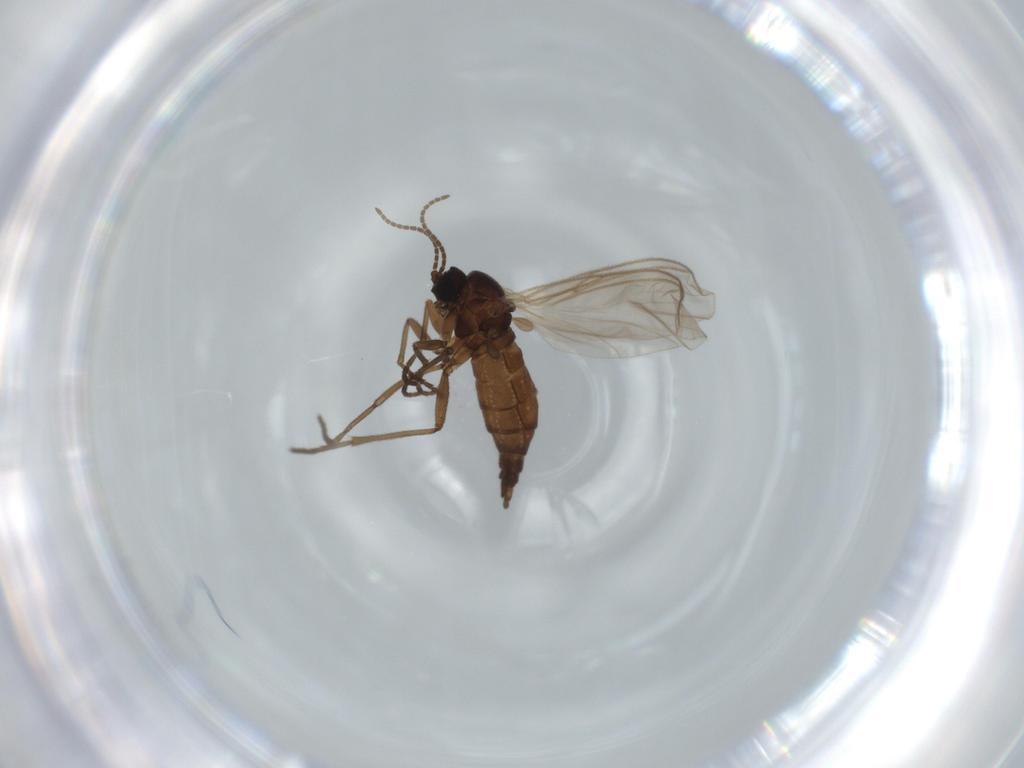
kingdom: Animalia
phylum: Arthropoda
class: Insecta
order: Diptera
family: Sciaridae
